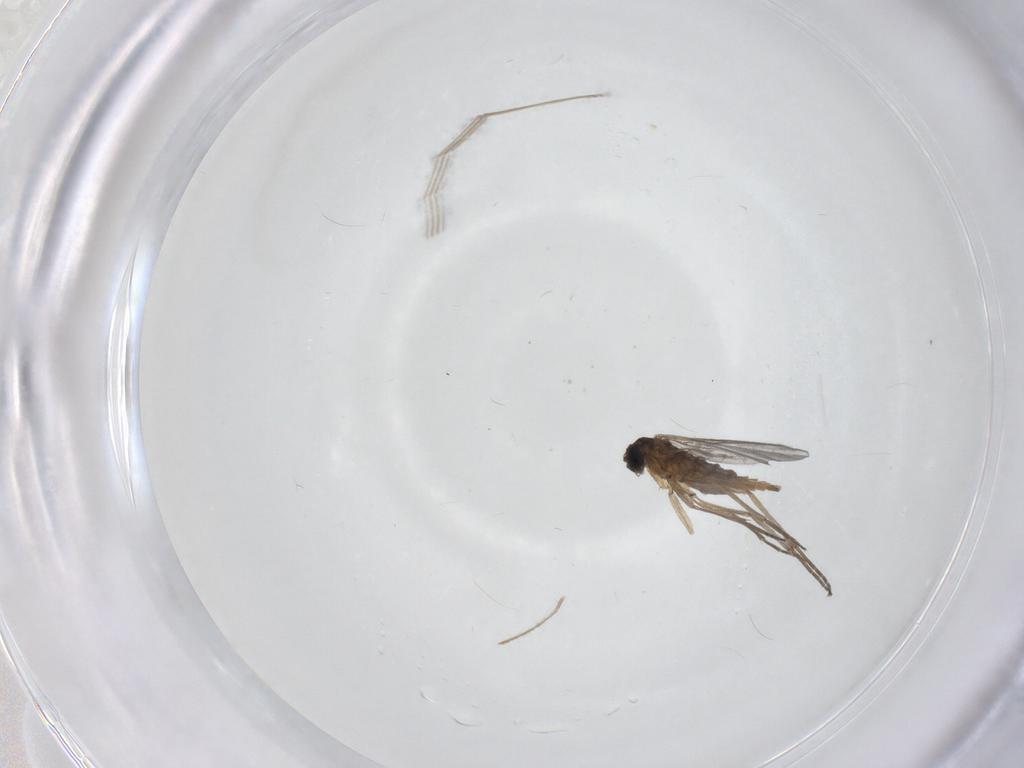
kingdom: Animalia
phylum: Arthropoda
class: Insecta
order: Diptera
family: Sciaridae
